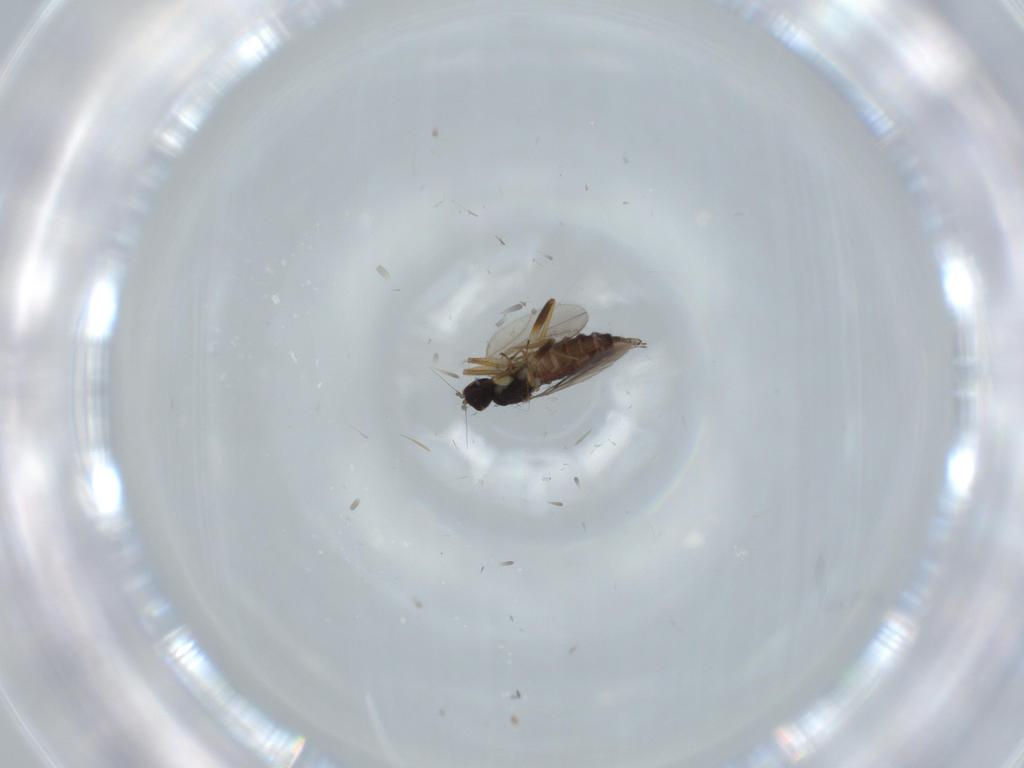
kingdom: Animalia
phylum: Arthropoda
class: Insecta
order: Diptera
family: Hybotidae
